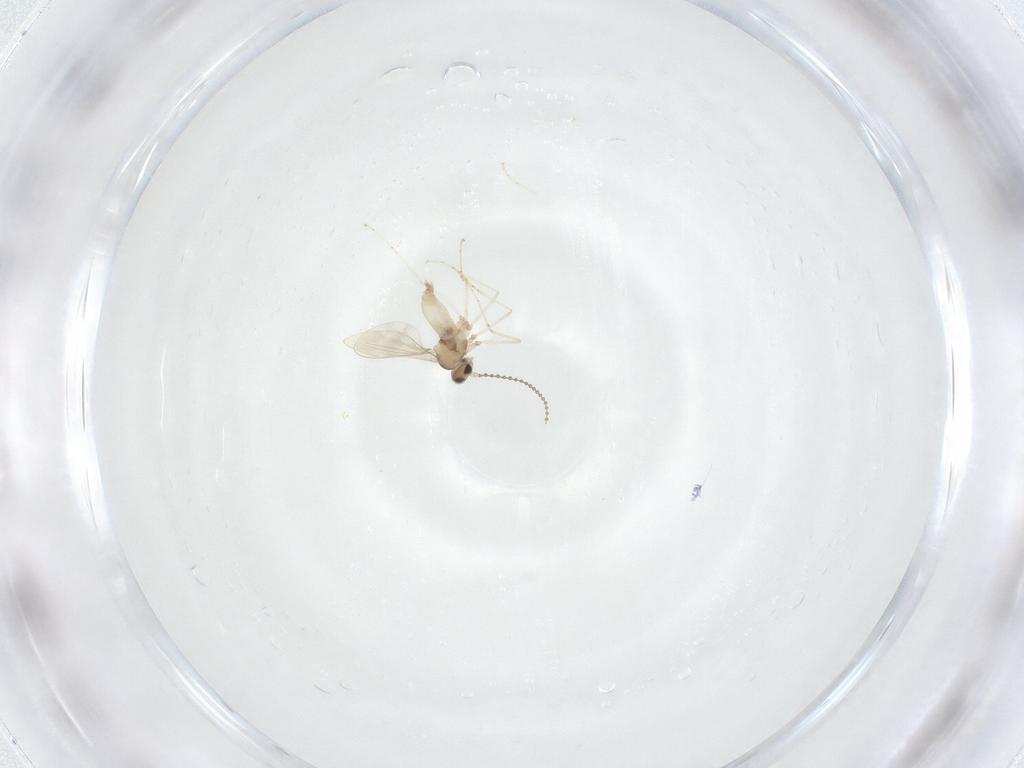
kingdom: Animalia
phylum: Arthropoda
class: Insecta
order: Diptera
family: Cecidomyiidae
